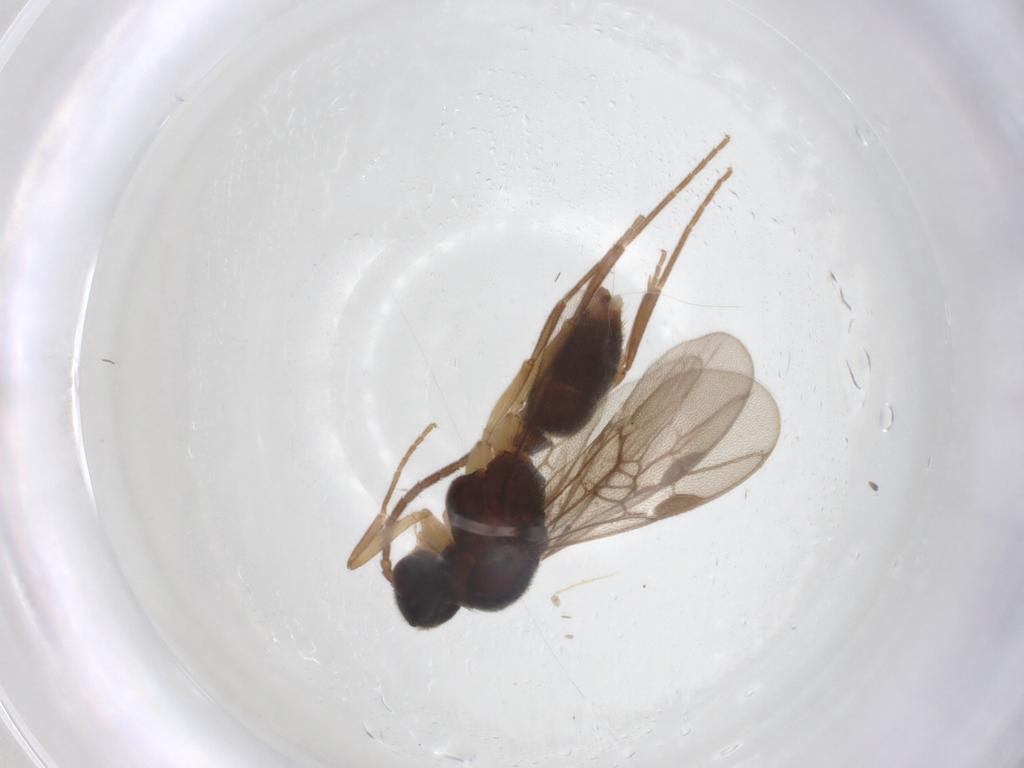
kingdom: Animalia
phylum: Arthropoda
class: Insecta
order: Hymenoptera
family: Formicidae
